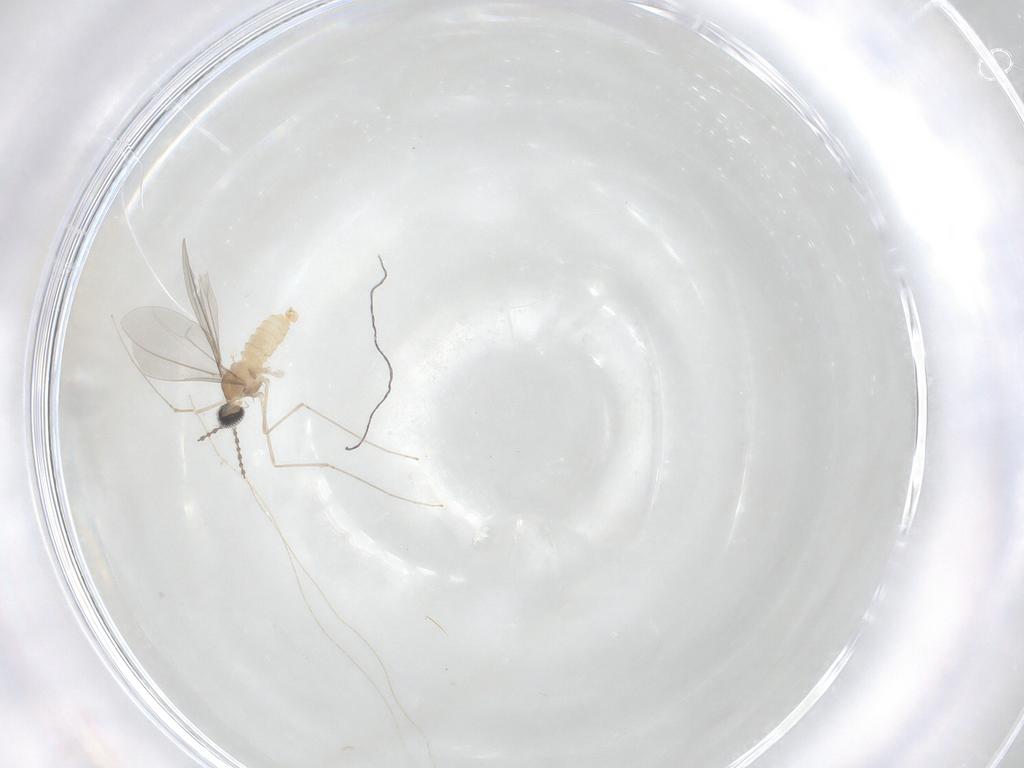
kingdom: Animalia
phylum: Arthropoda
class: Insecta
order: Diptera
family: Cecidomyiidae
